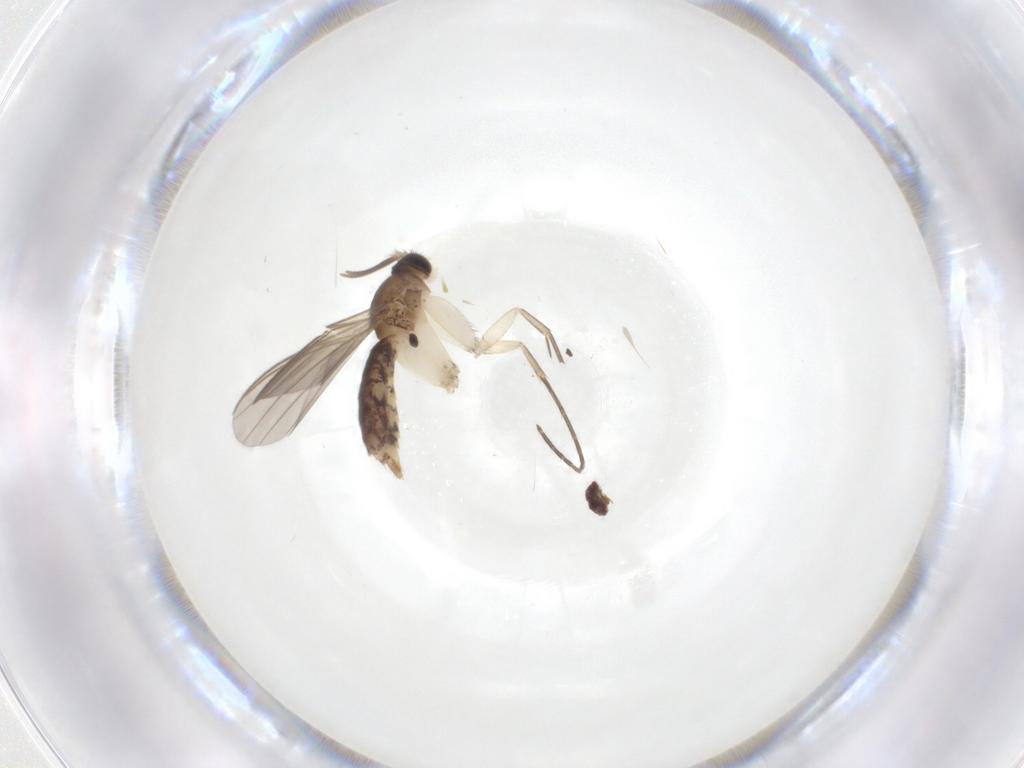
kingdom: Animalia
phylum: Arthropoda
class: Insecta
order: Diptera
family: Mycetophilidae
